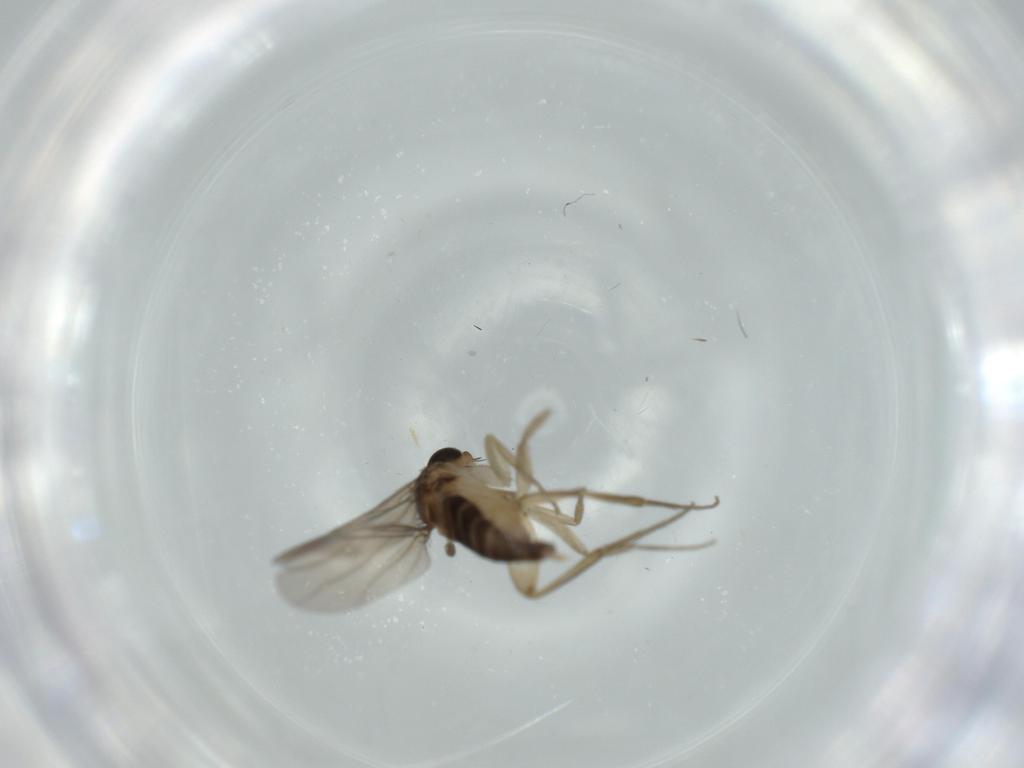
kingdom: Animalia
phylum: Arthropoda
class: Insecta
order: Diptera
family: Phoridae
